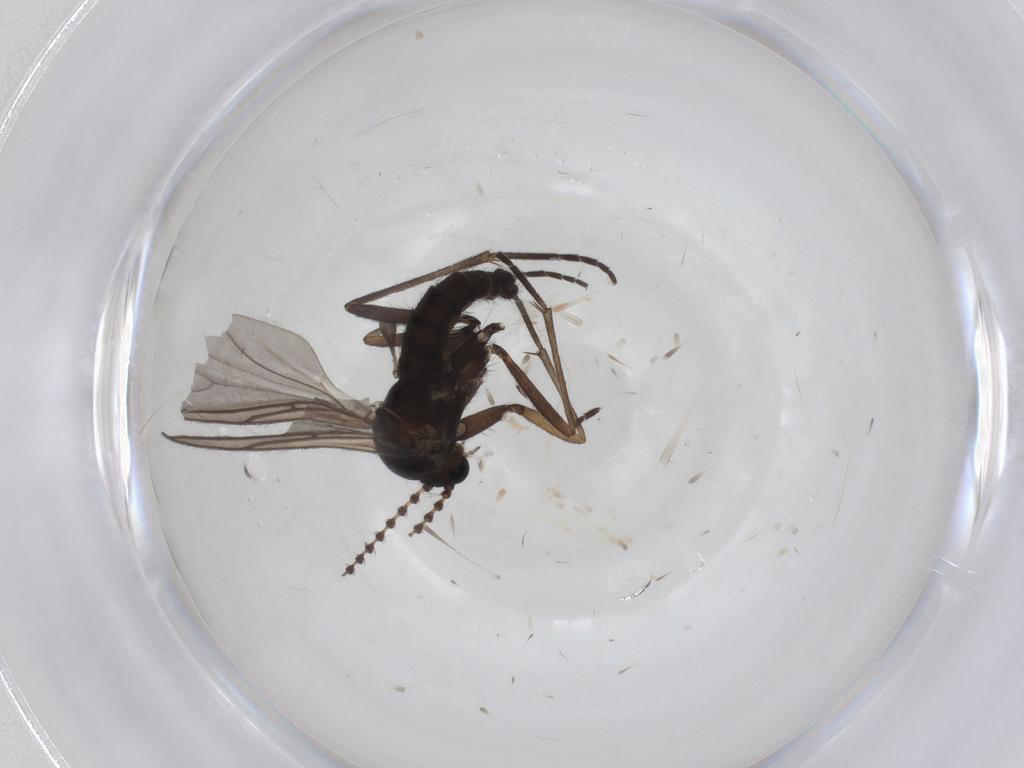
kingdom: Animalia
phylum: Arthropoda
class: Insecta
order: Diptera
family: Sciaridae
